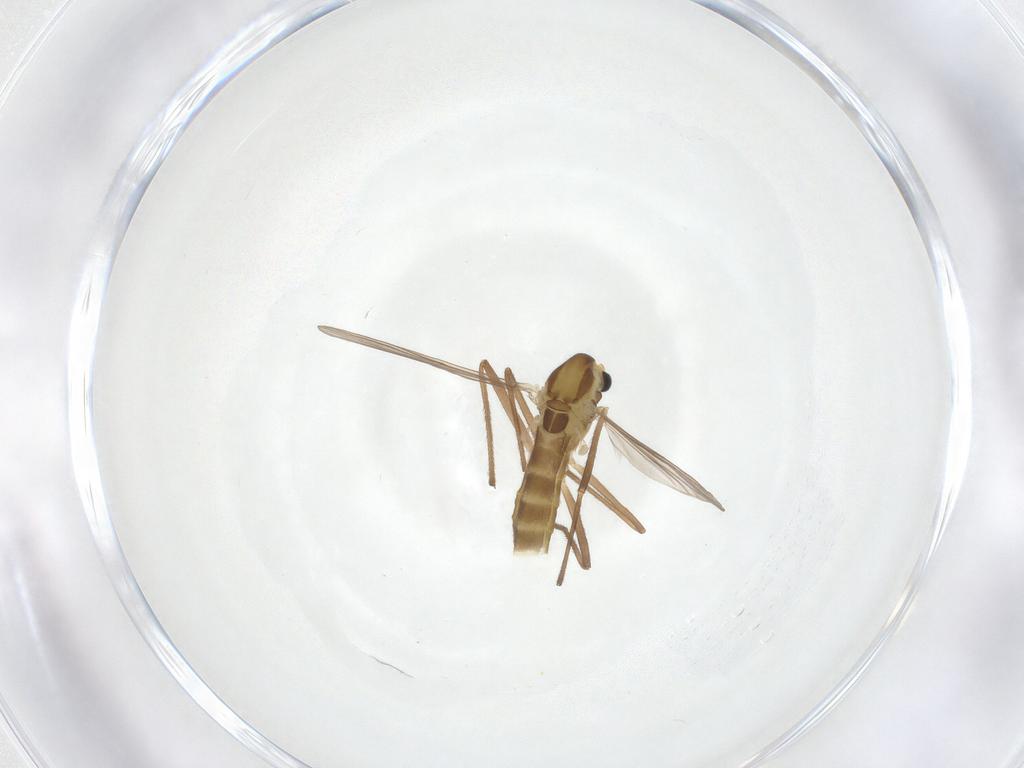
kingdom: Animalia
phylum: Arthropoda
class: Insecta
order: Diptera
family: Chironomidae
